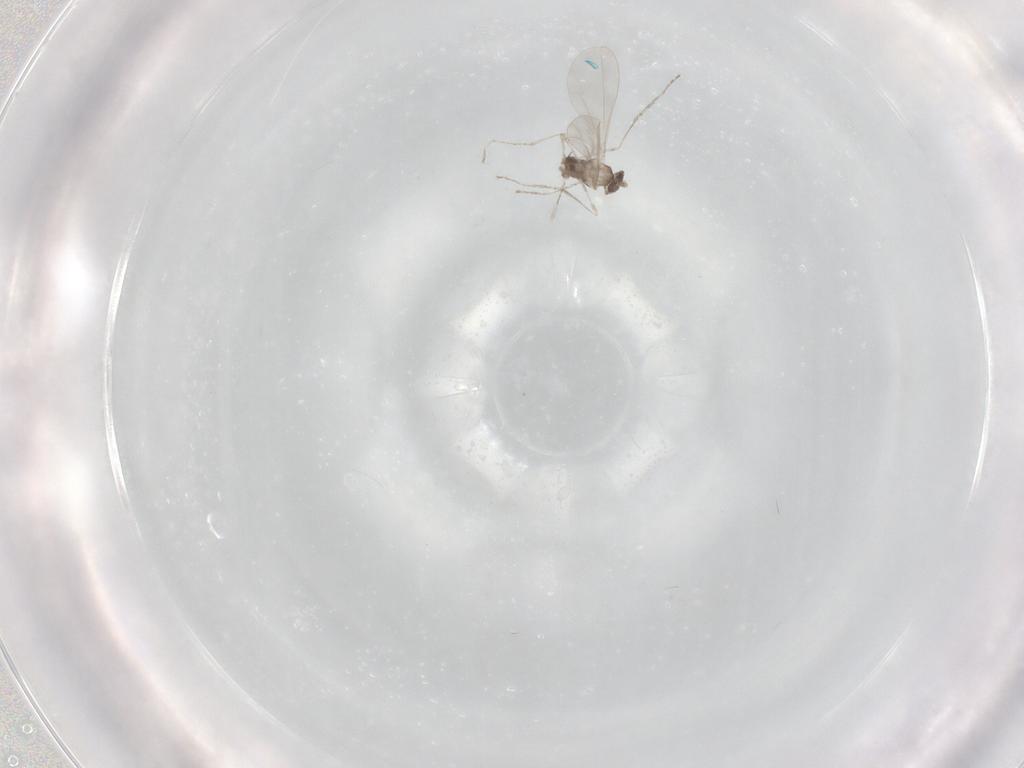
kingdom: Animalia
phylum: Arthropoda
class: Insecta
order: Diptera
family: Cecidomyiidae
